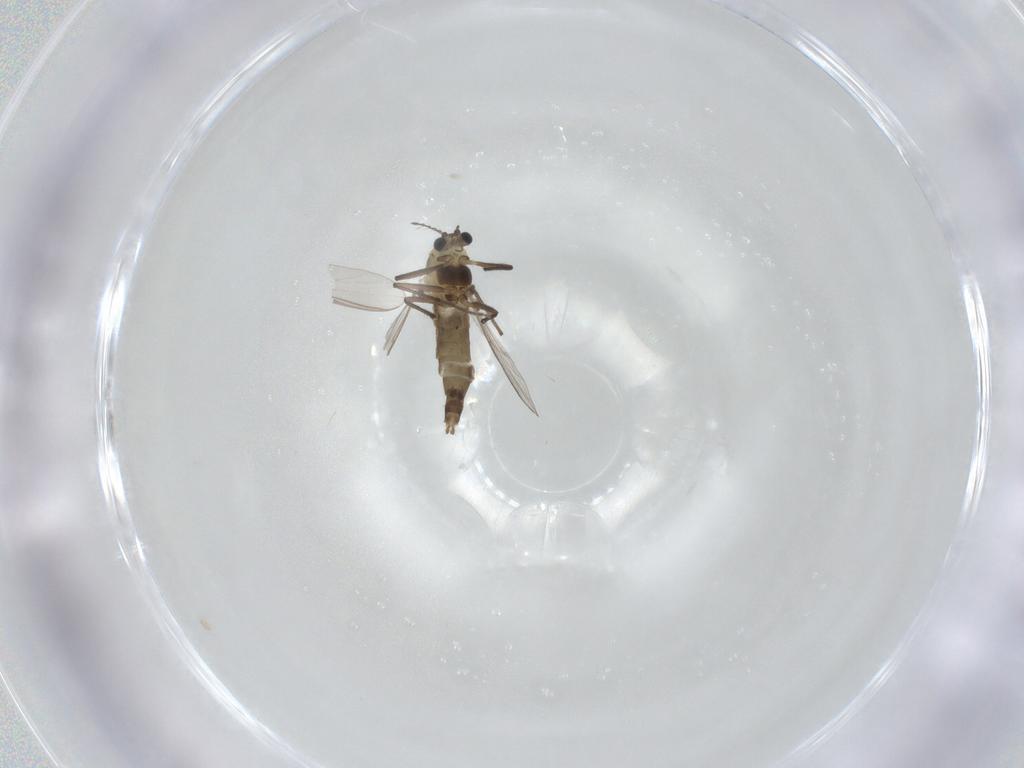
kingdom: Animalia
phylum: Arthropoda
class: Insecta
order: Diptera
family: Chironomidae
